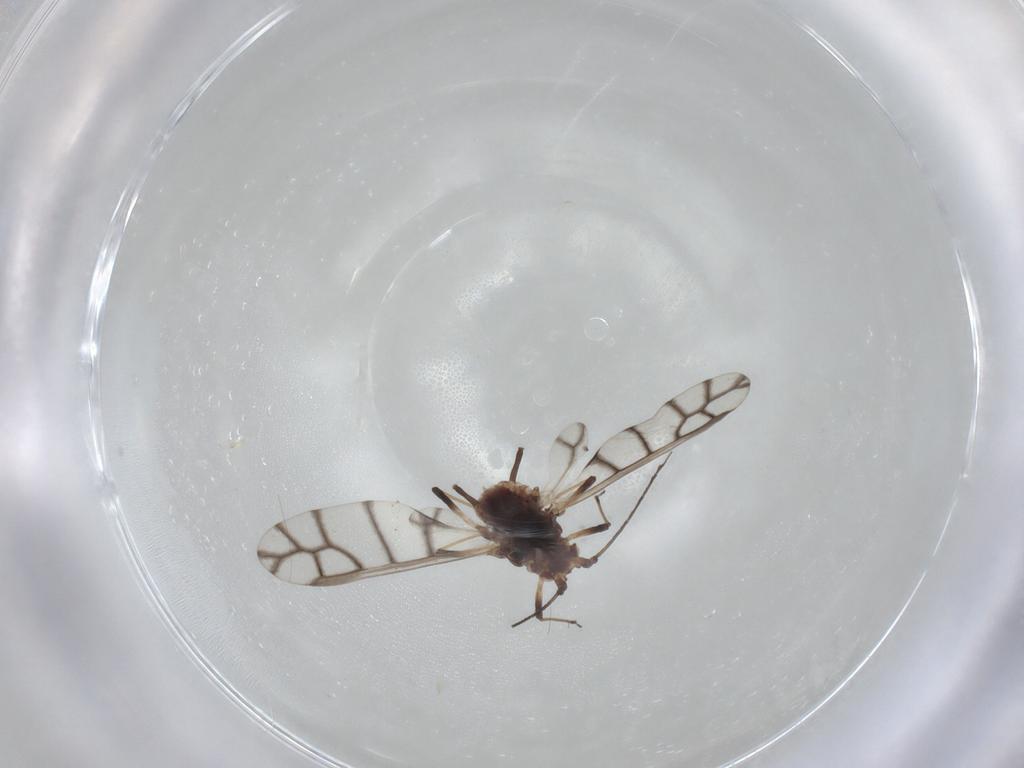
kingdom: Animalia
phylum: Arthropoda
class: Insecta
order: Hemiptera
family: Aphididae
